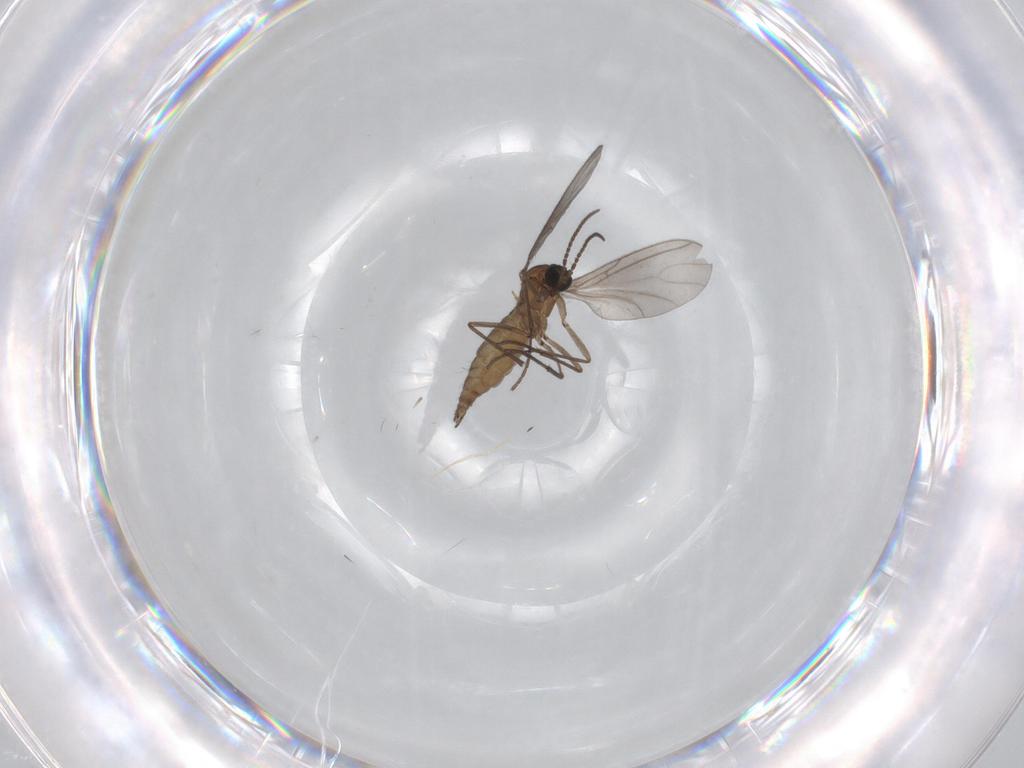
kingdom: Animalia
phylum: Arthropoda
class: Insecta
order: Diptera
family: Sciaridae
